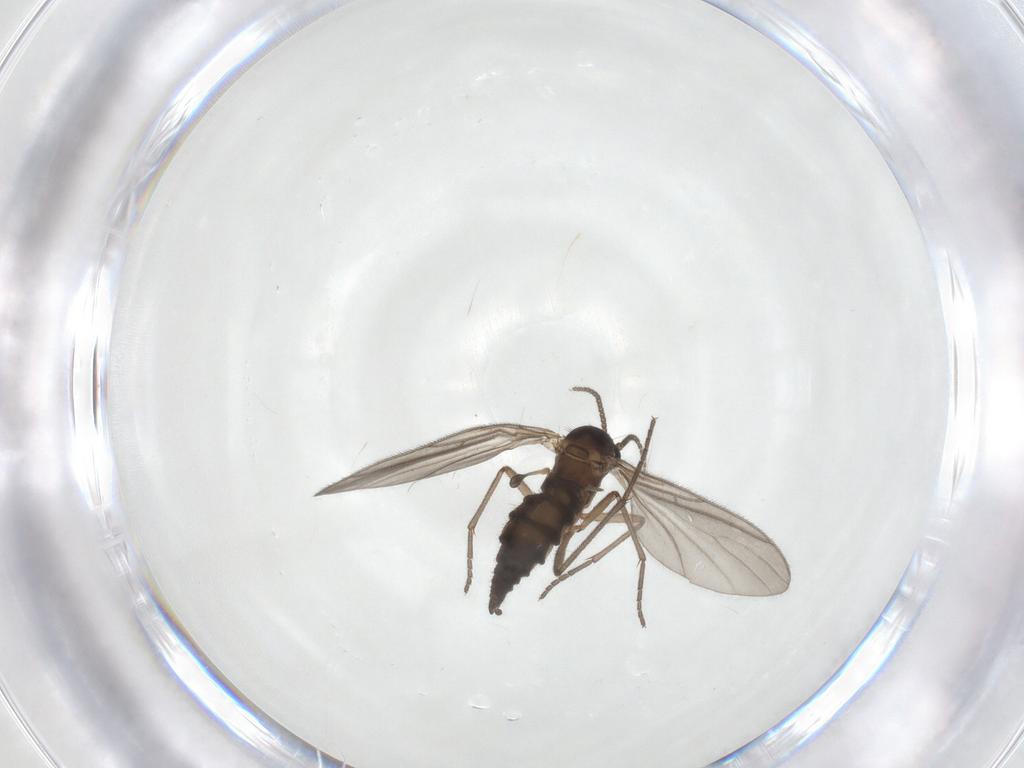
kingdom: Animalia
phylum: Arthropoda
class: Insecta
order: Diptera
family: Sciaridae
